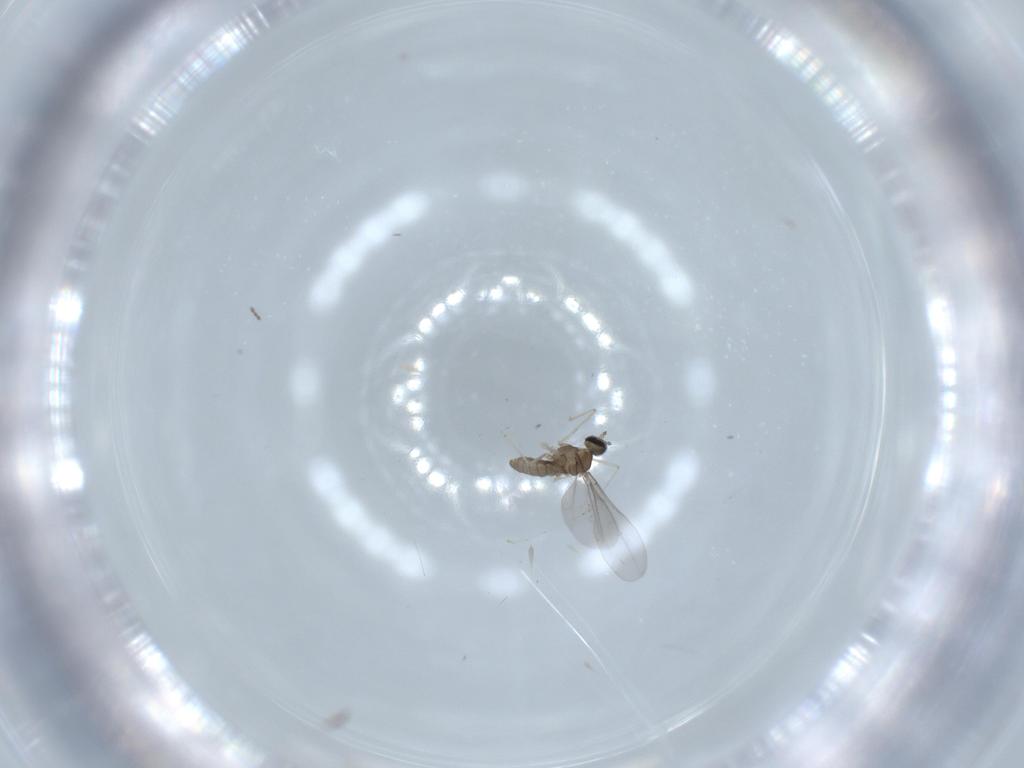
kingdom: Animalia
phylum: Arthropoda
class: Insecta
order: Diptera
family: Cecidomyiidae
